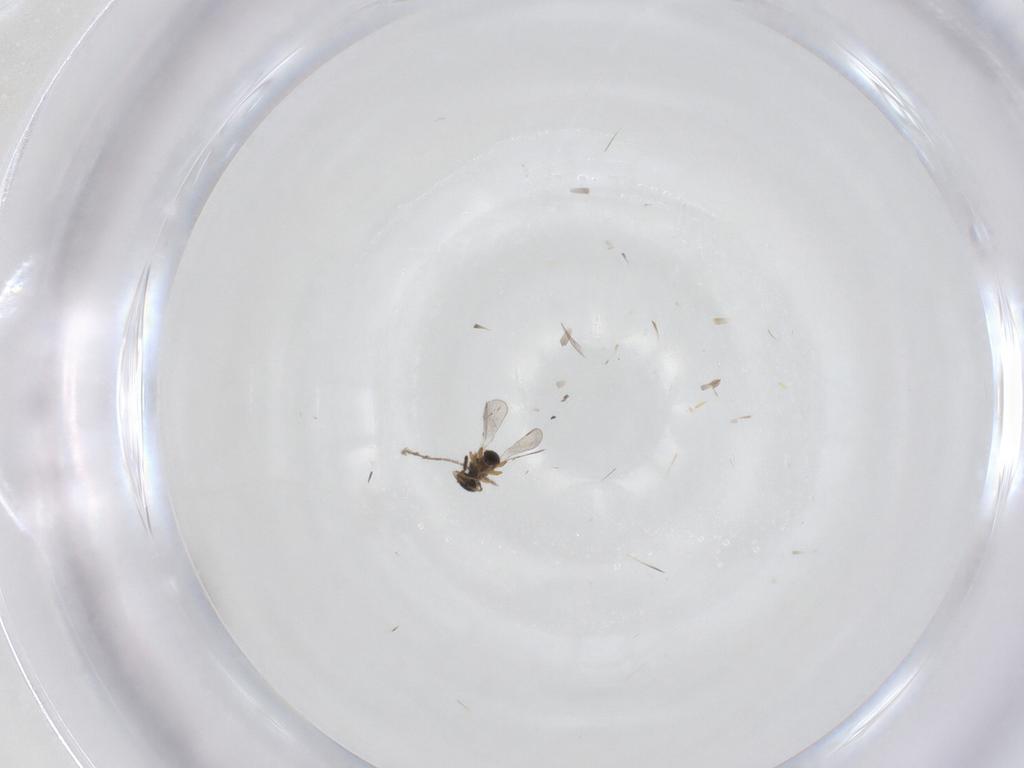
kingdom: Animalia
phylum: Arthropoda
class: Insecta
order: Hymenoptera
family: Platygastridae
